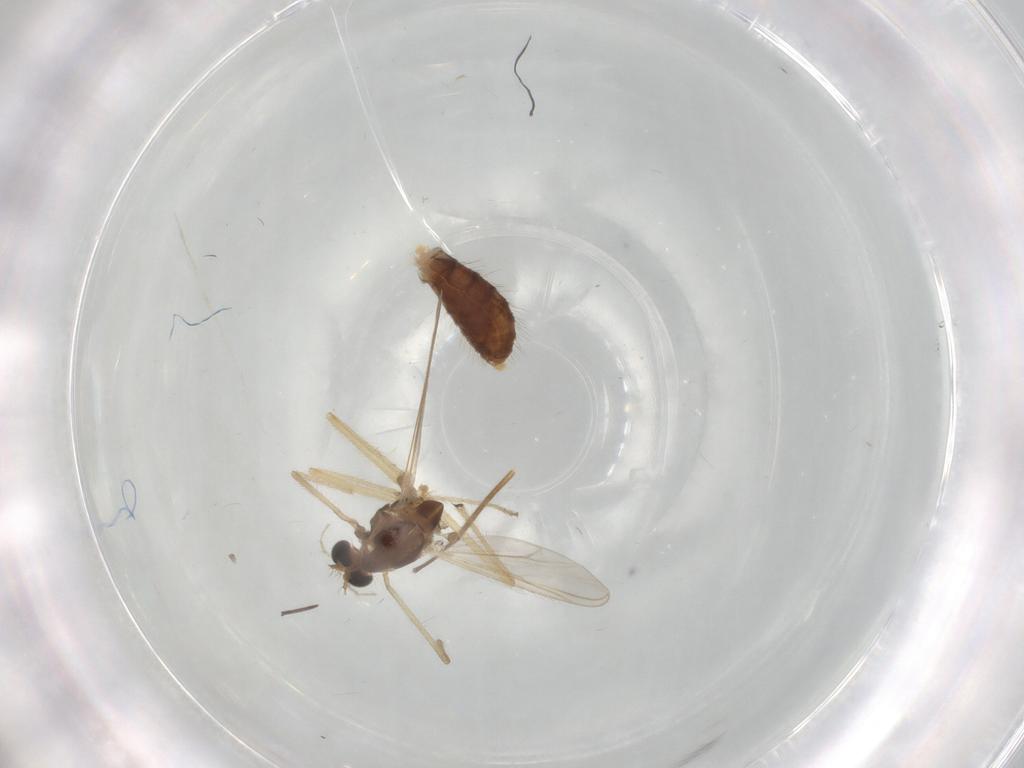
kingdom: Animalia
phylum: Arthropoda
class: Insecta
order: Diptera
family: Chironomidae
